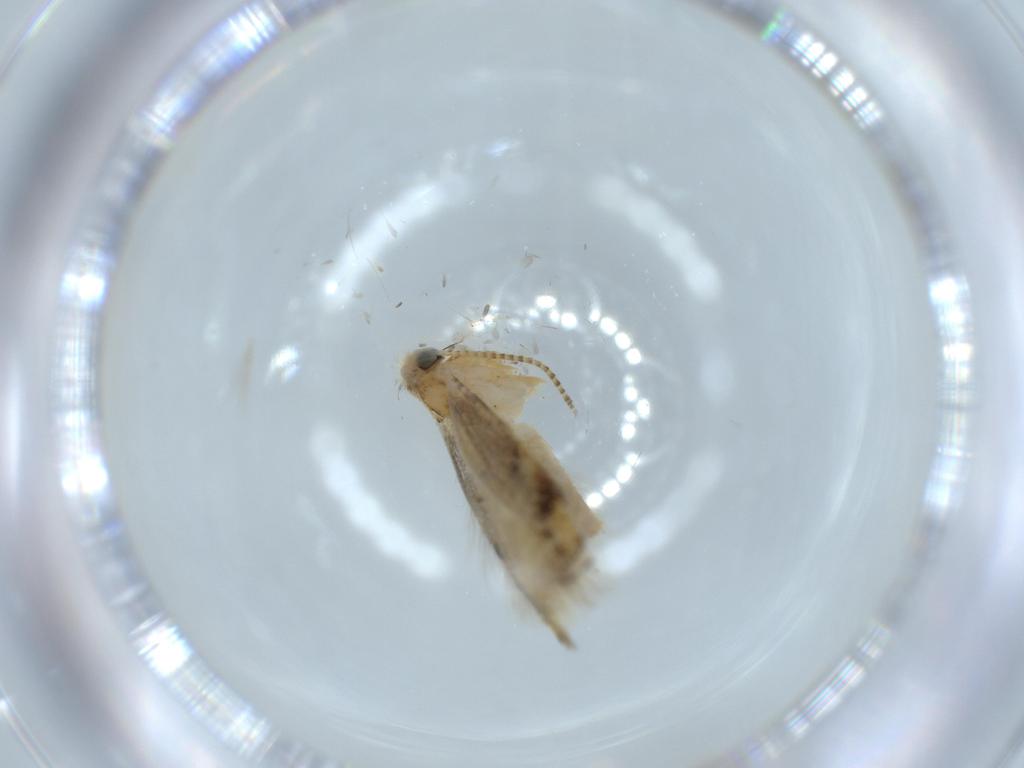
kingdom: Animalia
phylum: Arthropoda
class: Insecta
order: Lepidoptera
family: Bucculatricidae
